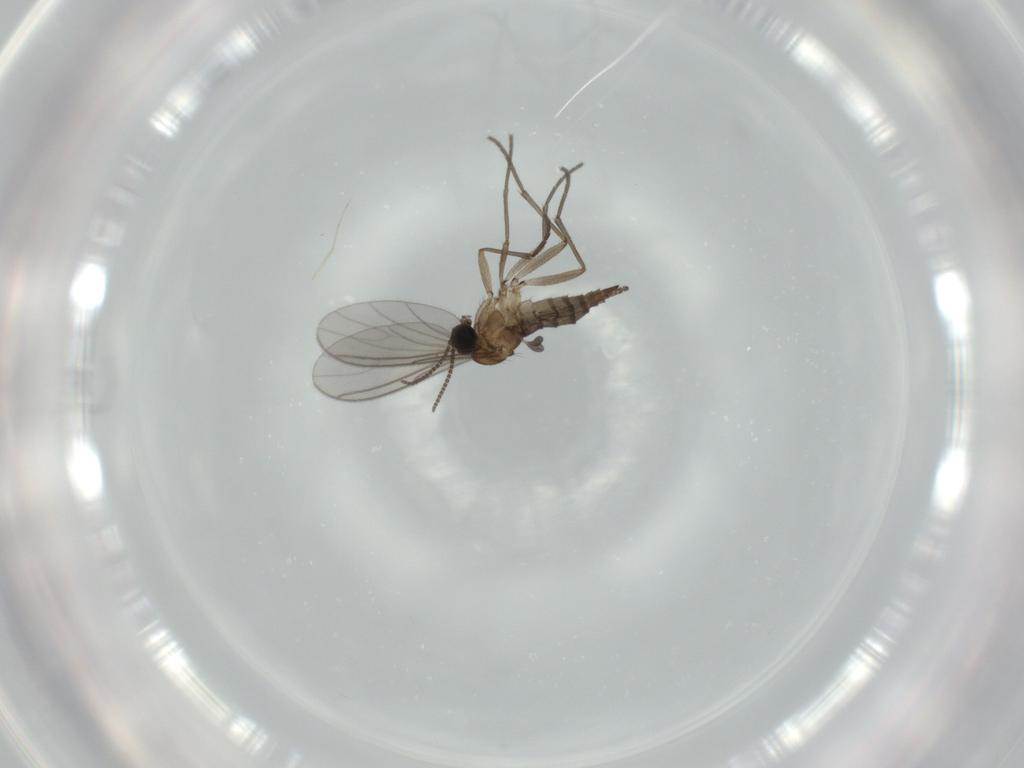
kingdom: Animalia
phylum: Arthropoda
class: Insecta
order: Diptera
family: Sciaridae
